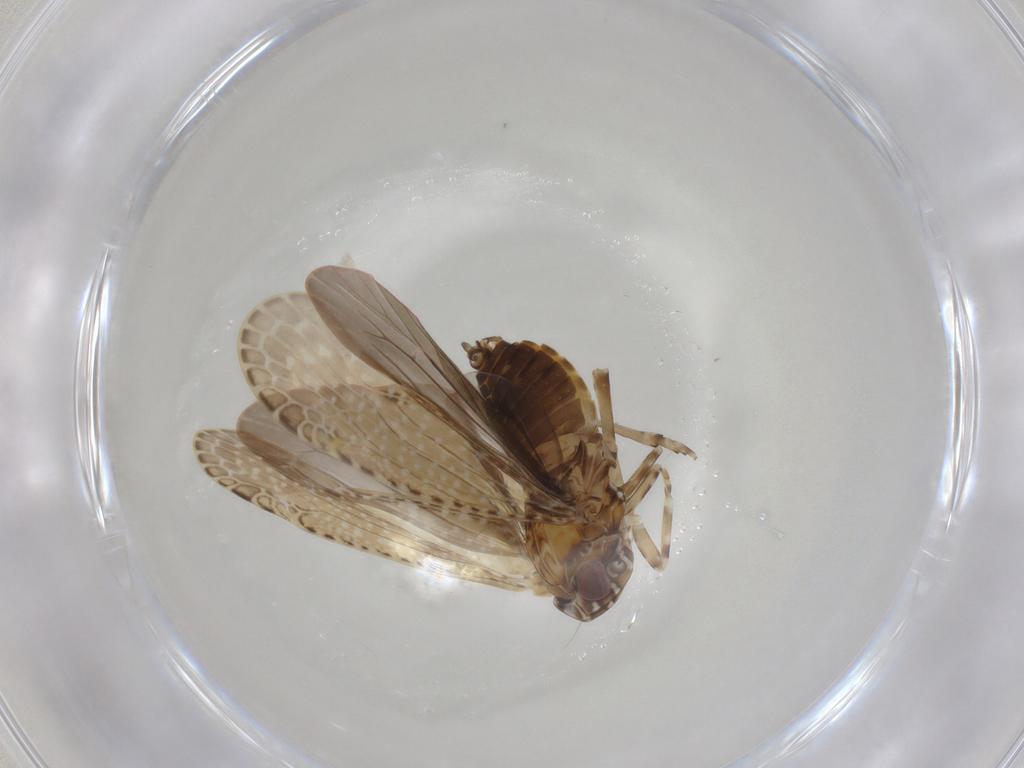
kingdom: Animalia
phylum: Arthropoda
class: Insecta
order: Hemiptera
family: Achilidae
